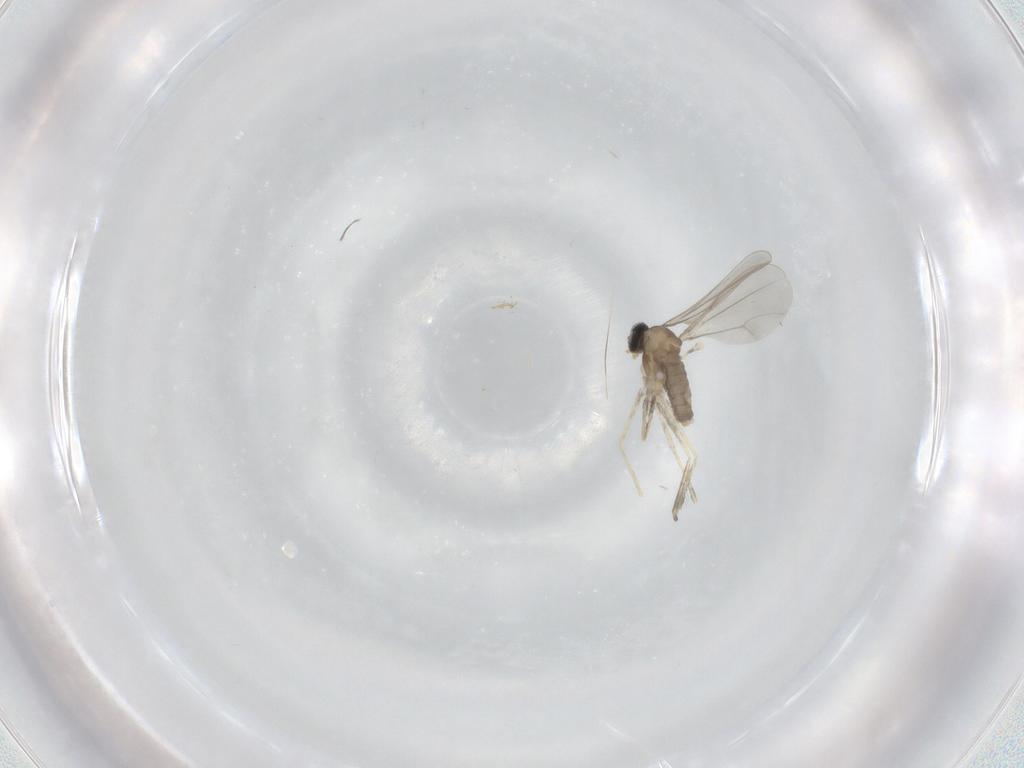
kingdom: Animalia
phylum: Arthropoda
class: Insecta
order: Diptera
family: Cecidomyiidae
